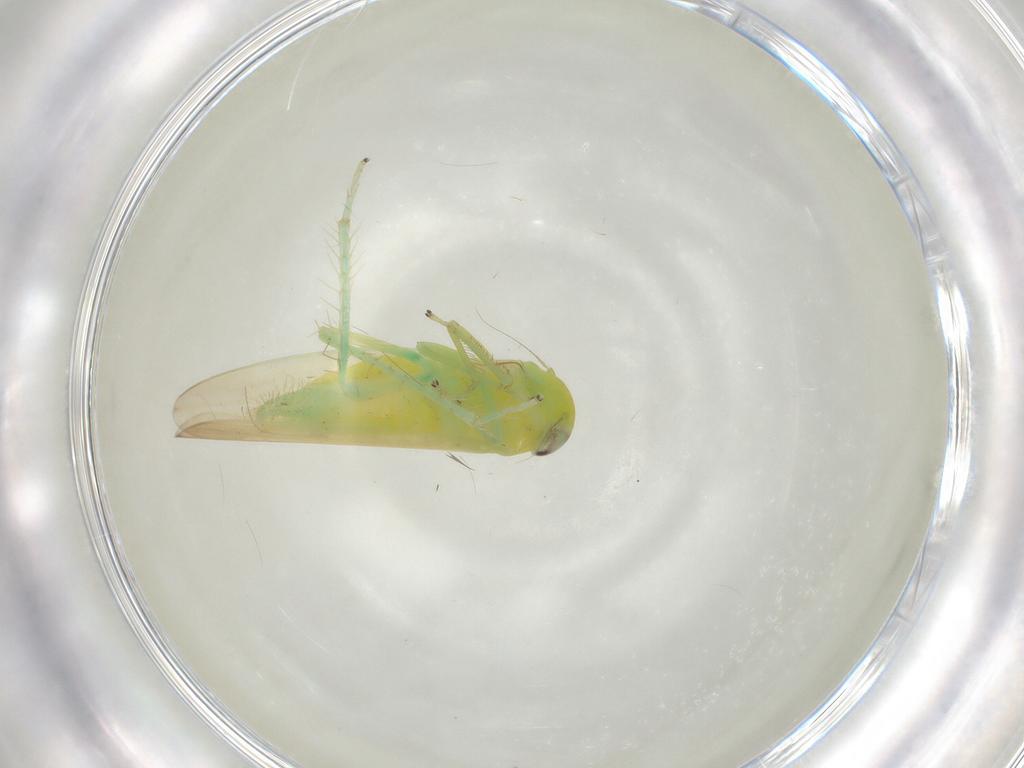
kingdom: Animalia
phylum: Arthropoda
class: Insecta
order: Hemiptera
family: Cicadellidae
